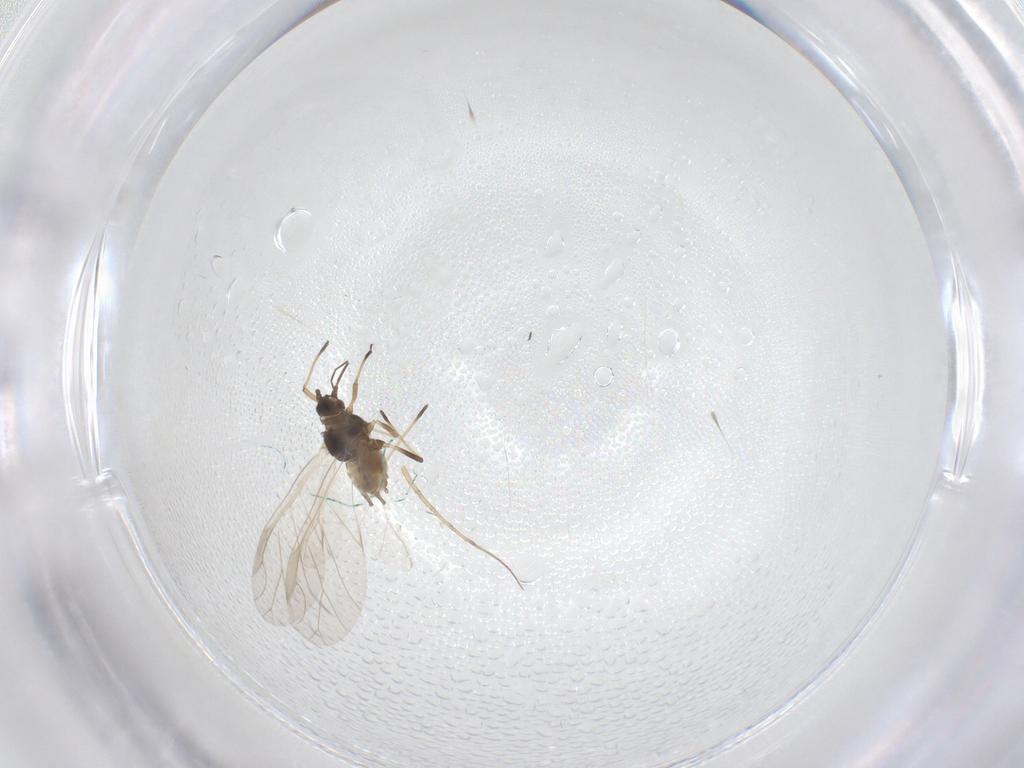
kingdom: Animalia
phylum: Arthropoda
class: Insecta
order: Hemiptera
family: Aphididae
